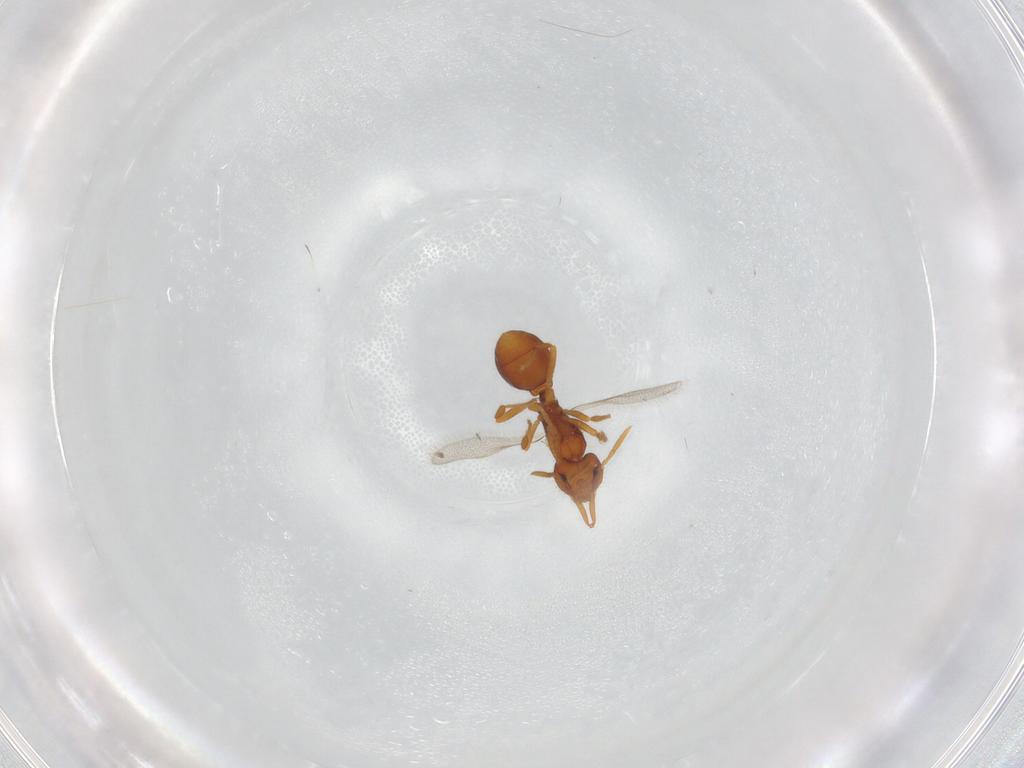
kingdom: Animalia
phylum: Arthropoda
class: Insecta
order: Hymenoptera
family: Formicidae
